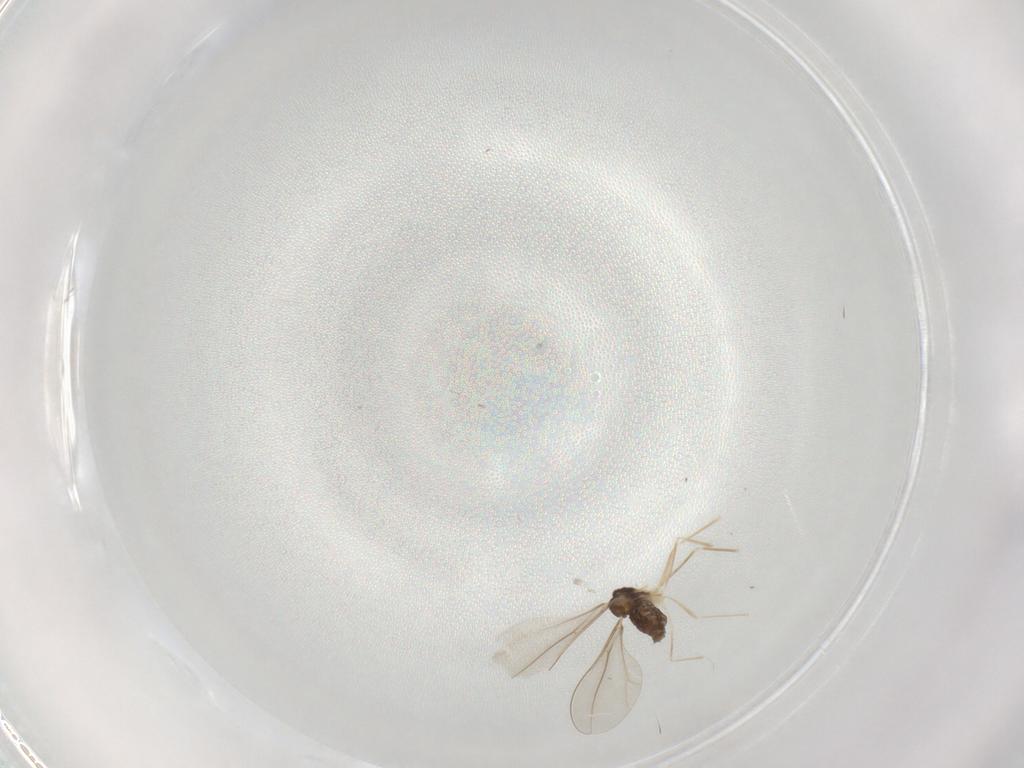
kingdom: Animalia
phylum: Arthropoda
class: Insecta
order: Diptera
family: Cecidomyiidae
